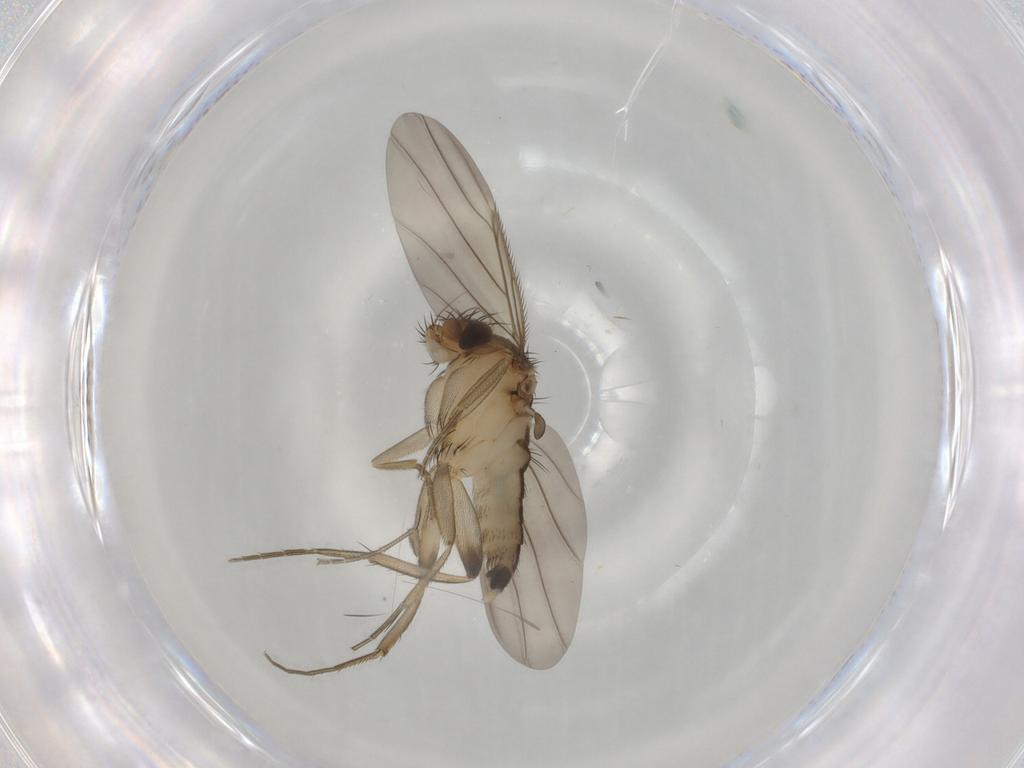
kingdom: Animalia
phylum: Arthropoda
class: Insecta
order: Diptera
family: Phoridae
